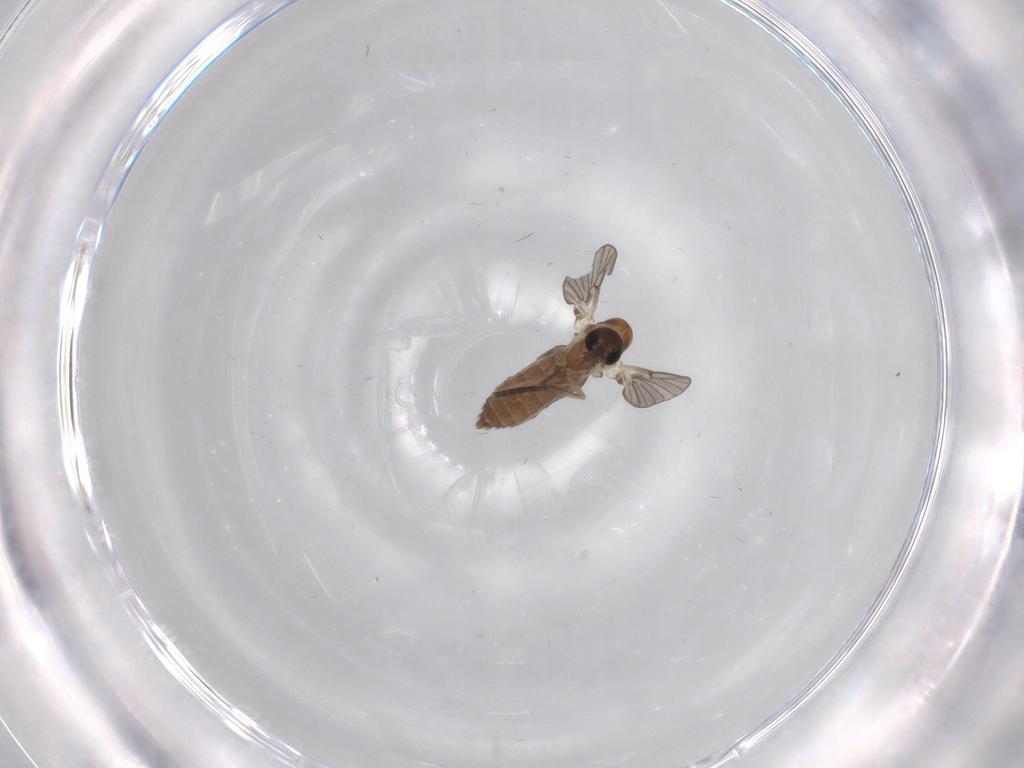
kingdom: Animalia
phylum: Arthropoda
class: Insecta
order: Diptera
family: Psychodidae
